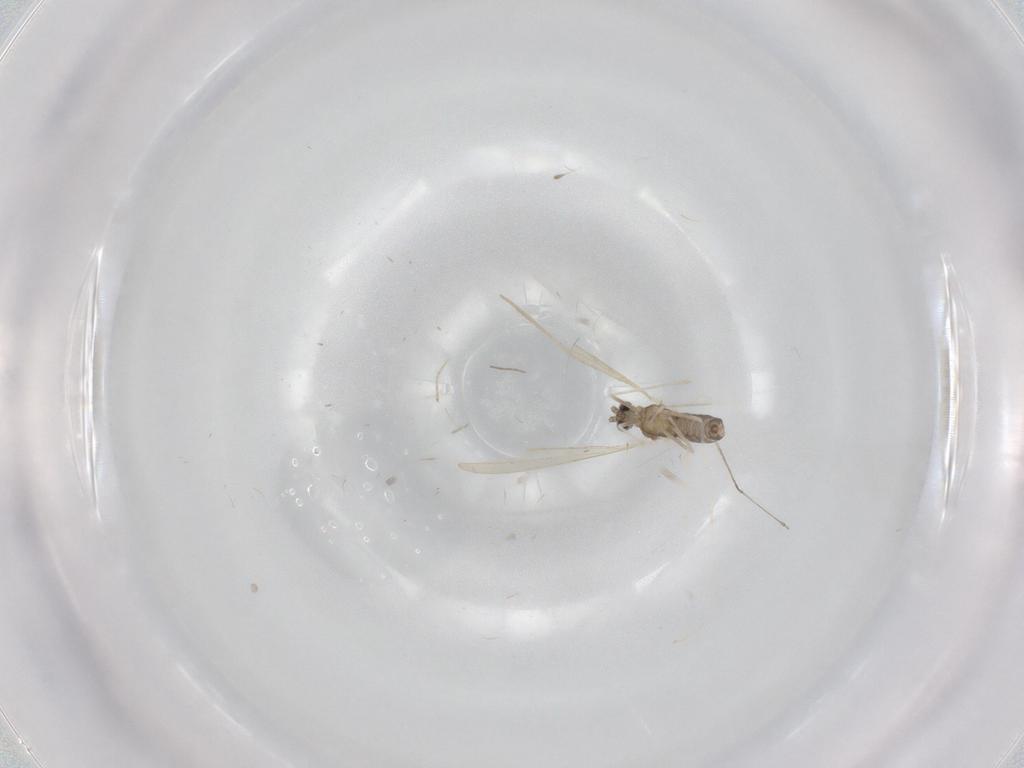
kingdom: Animalia
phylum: Arthropoda
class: Insecta
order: Diptera
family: Cecidomyiidae
